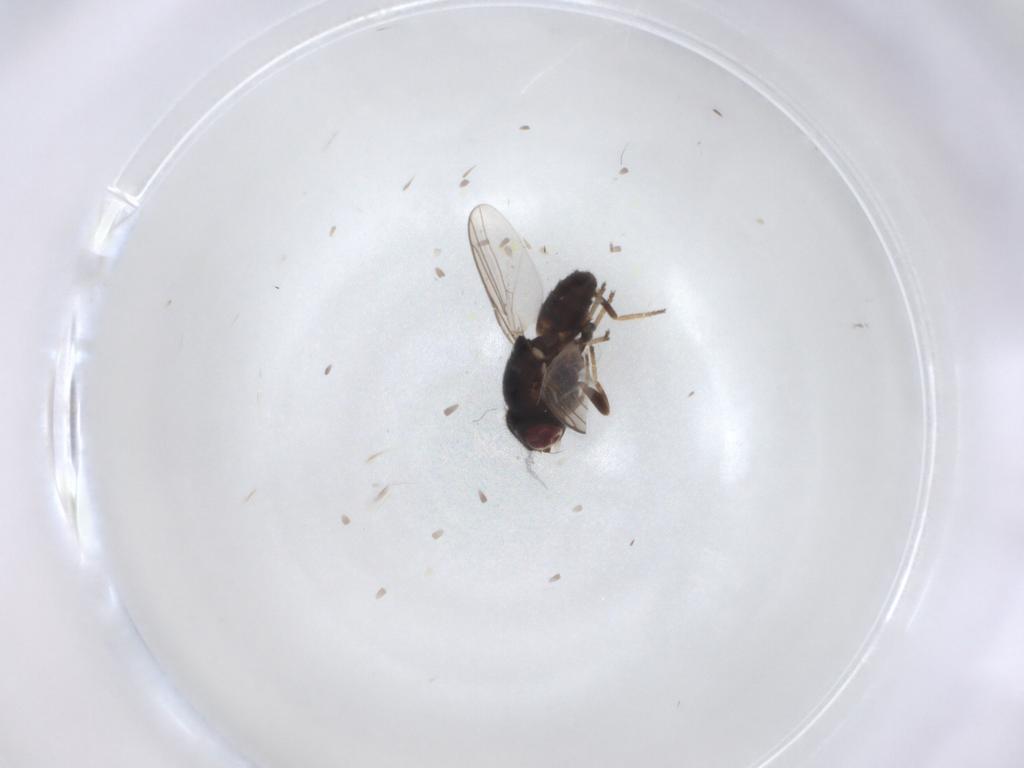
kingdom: Animalia
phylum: Arthropoda
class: Insecta
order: Diptera
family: Chloropidae
